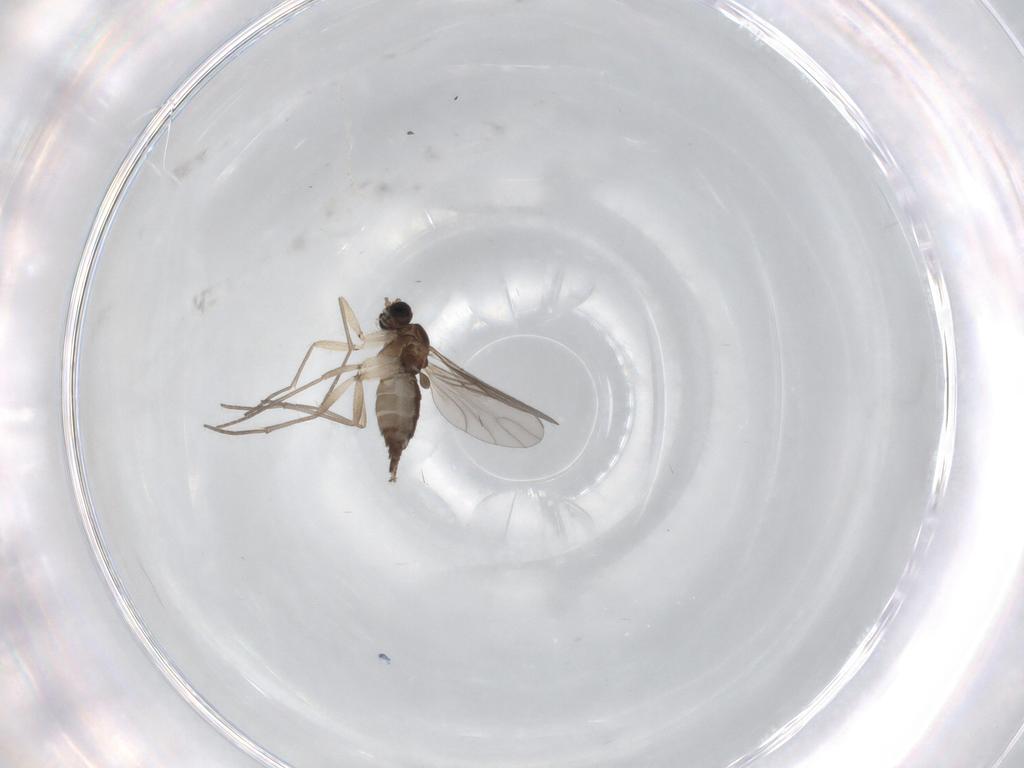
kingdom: Animalia
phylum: Arthropoda
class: Insecta
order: Diptera
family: Sciaridae
